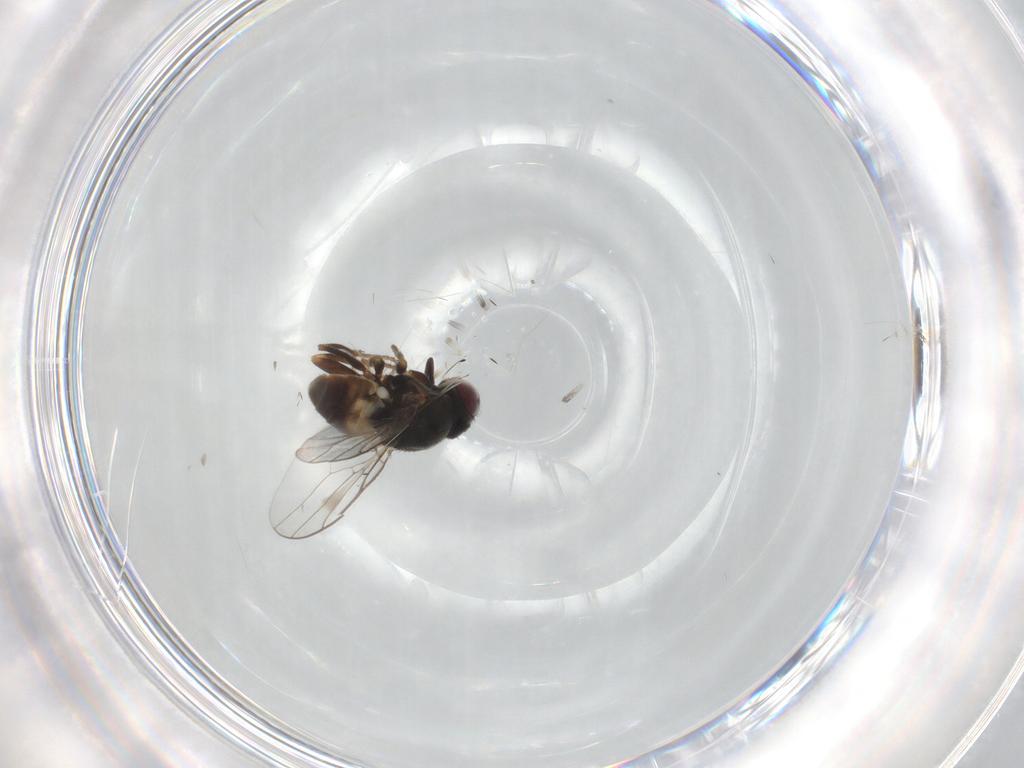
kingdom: Animalia
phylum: Arthropoda
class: Insecta
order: Diptera
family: Chloropidae
